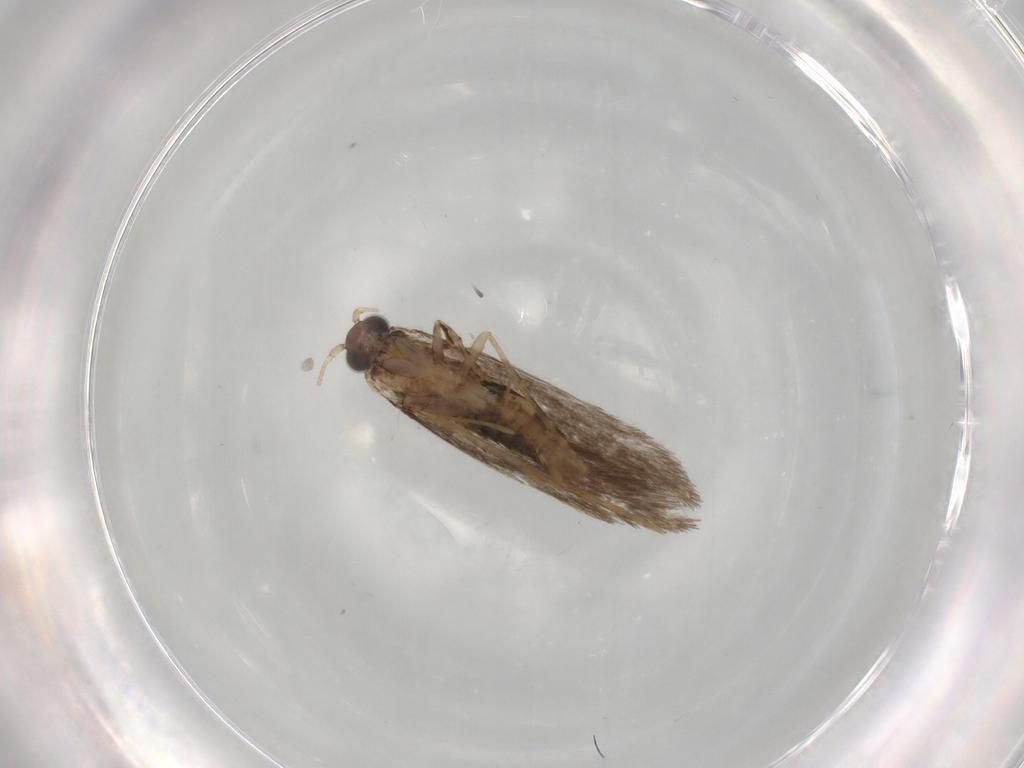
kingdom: Animalia
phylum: Arthropoda
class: Insecta
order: Lepidoptera
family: Tineidae
